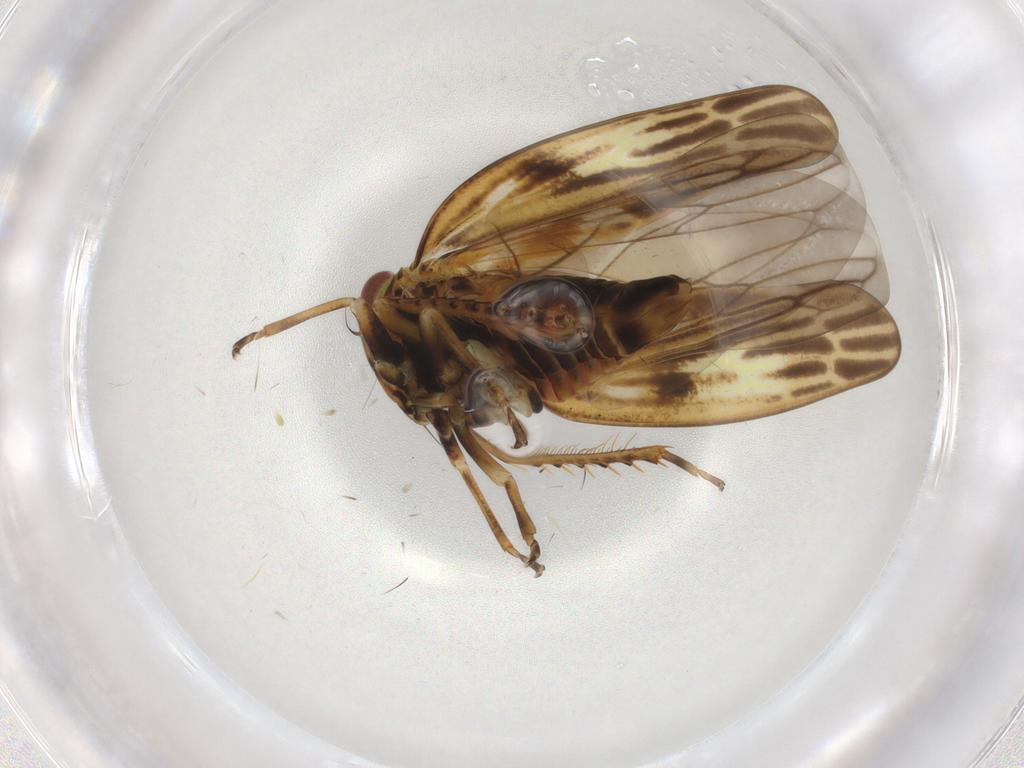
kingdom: Animalia
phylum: Arthropoda
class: Insecta
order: Hemiptera
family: Cicadellidae
